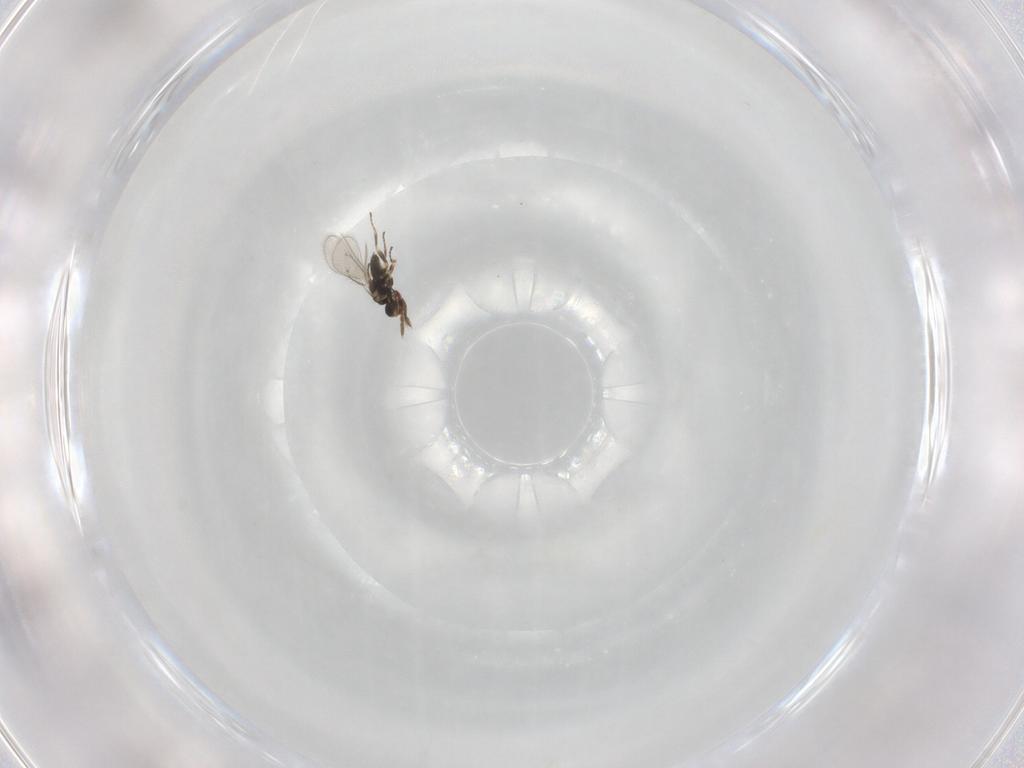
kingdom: Animalia
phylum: Arthropoda
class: Insecta
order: Hymenoptera
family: Eulophidae
